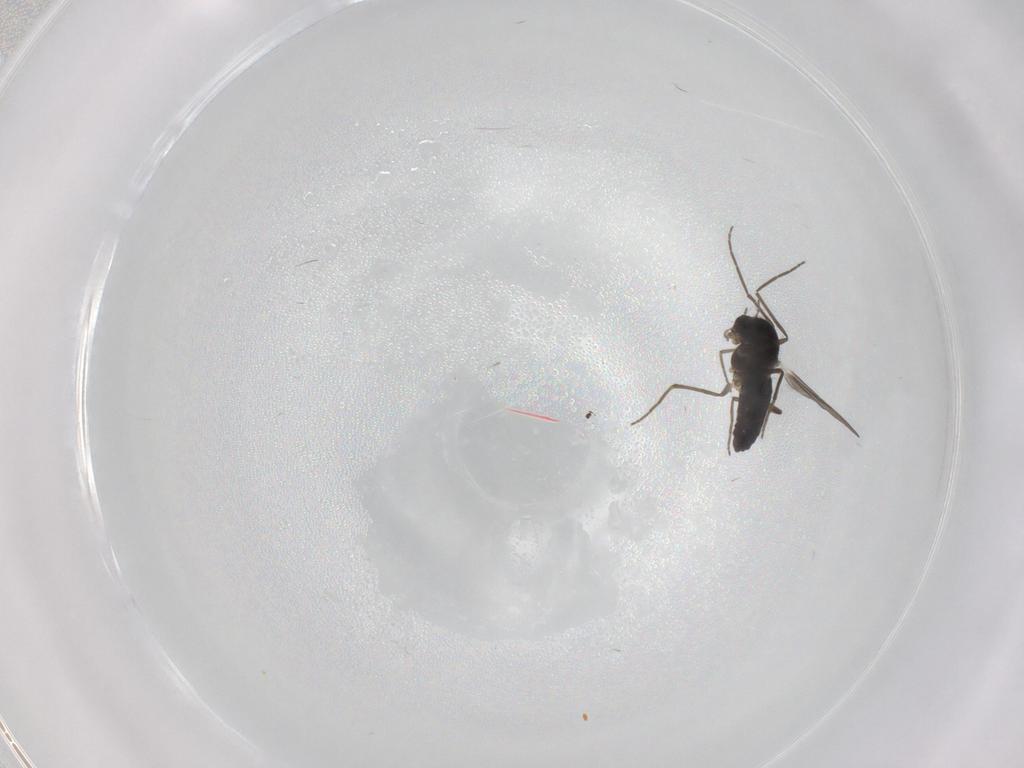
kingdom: Animalia
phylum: Arthropoda
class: Insecta
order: Diptera
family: Chironomidae
